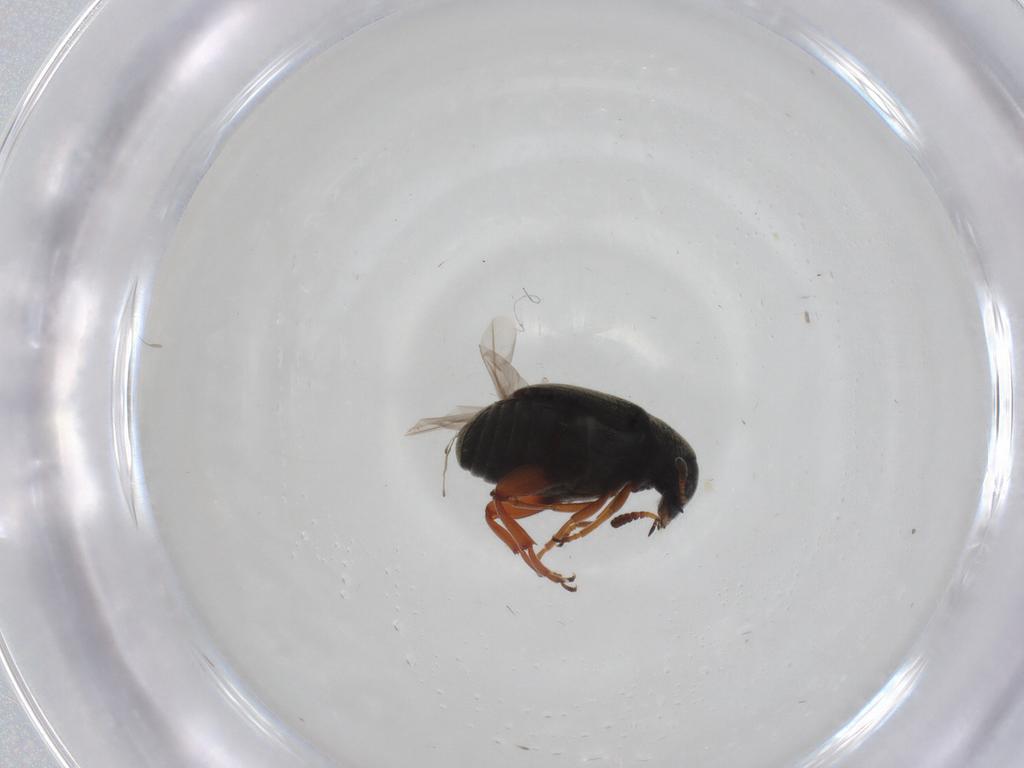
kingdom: Animalia
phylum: Arthropoda
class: Insecta
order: Coleoptera
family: Chrysomelidae
